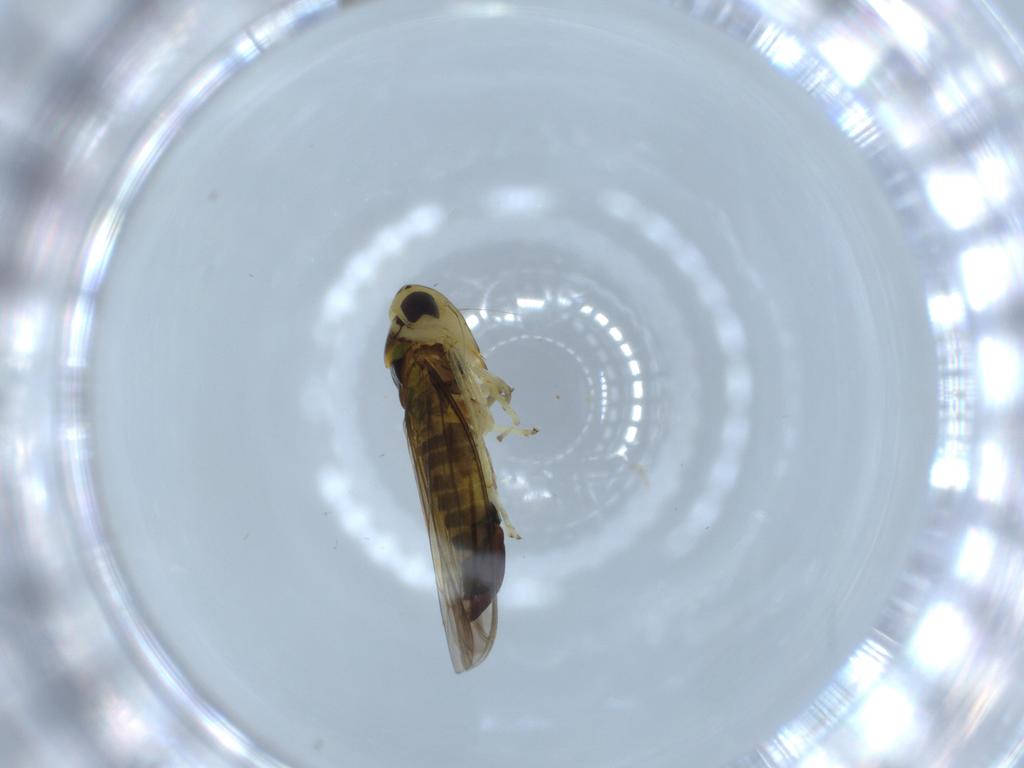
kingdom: Animalia
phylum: Arthropoda
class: Insecta
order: Hemiptera
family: Cicadellidae
